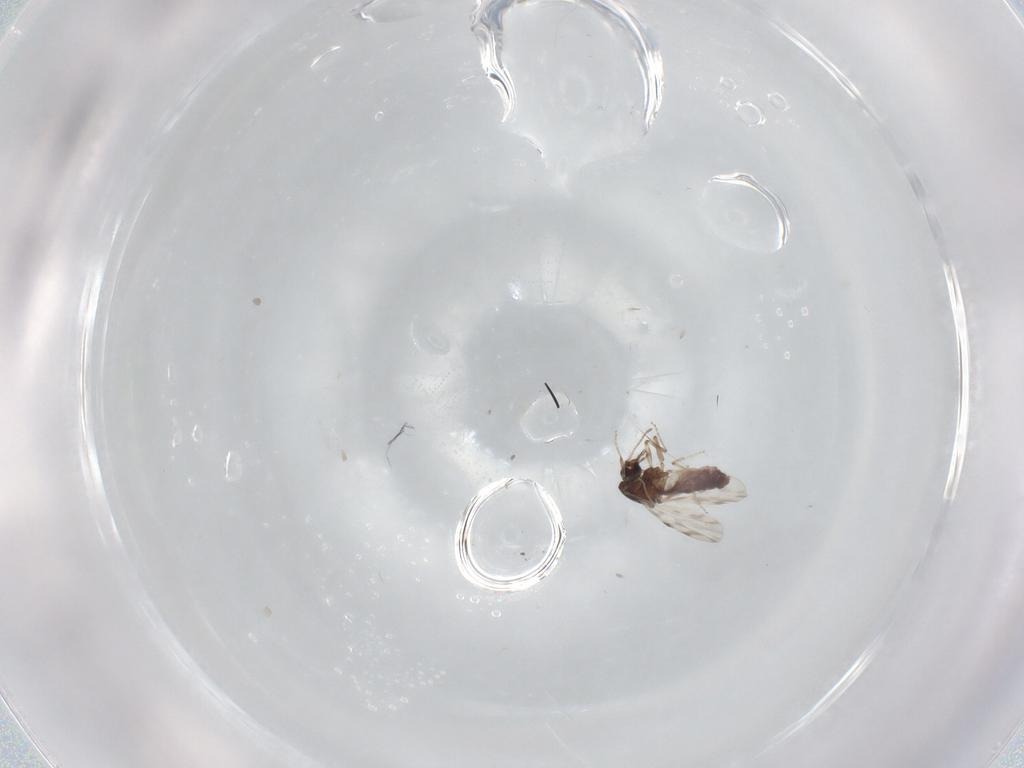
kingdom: Animalia
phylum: Arthropoda
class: Insecta
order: Diptera
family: Ceratopogonidae
